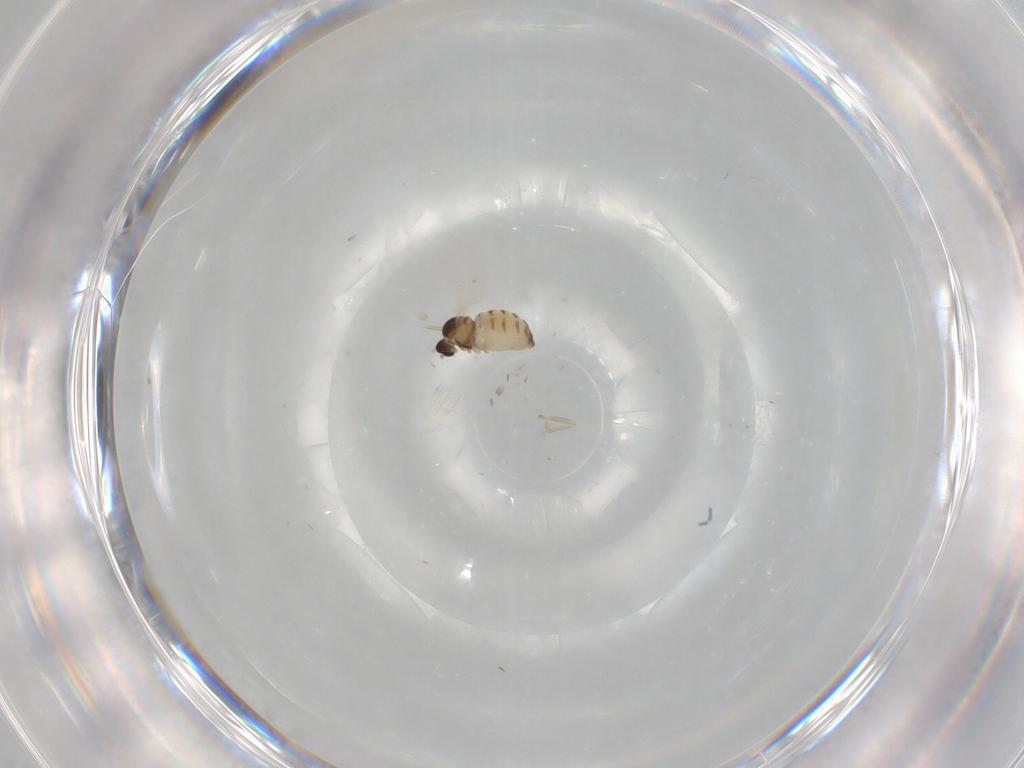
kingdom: Animalia
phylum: Arthropoda
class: Insecta
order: Diptera
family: Cecidomyiidae
